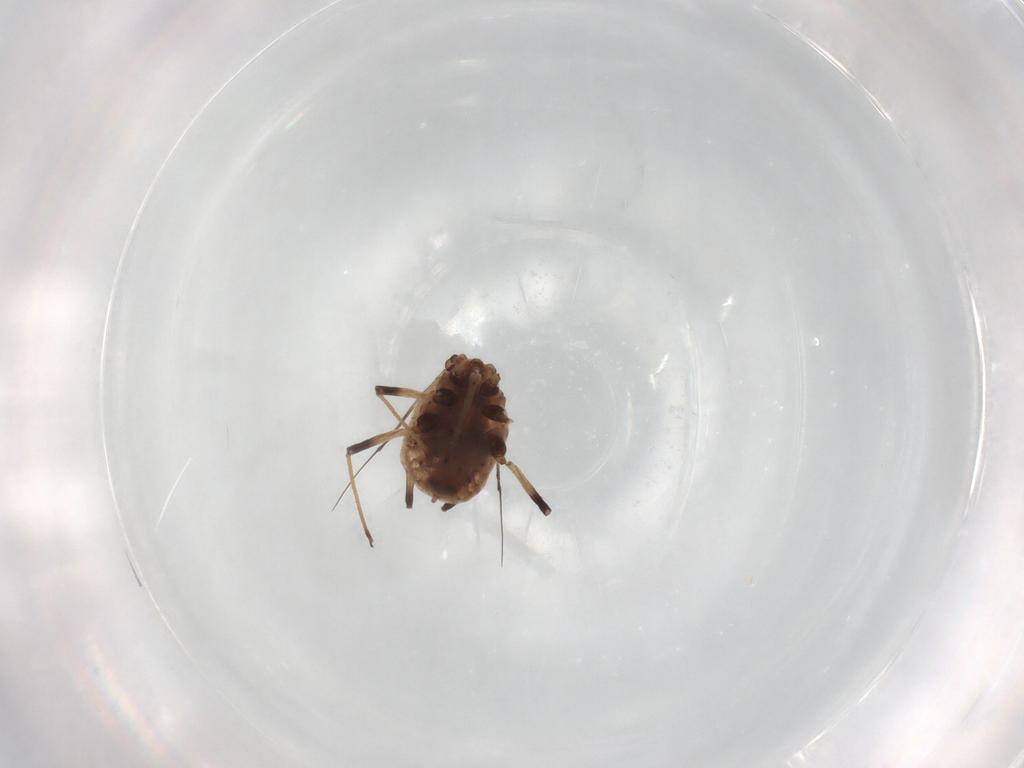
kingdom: Animalia
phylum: Arthropoda
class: Insecta
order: Hemiptera
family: Aphididae
